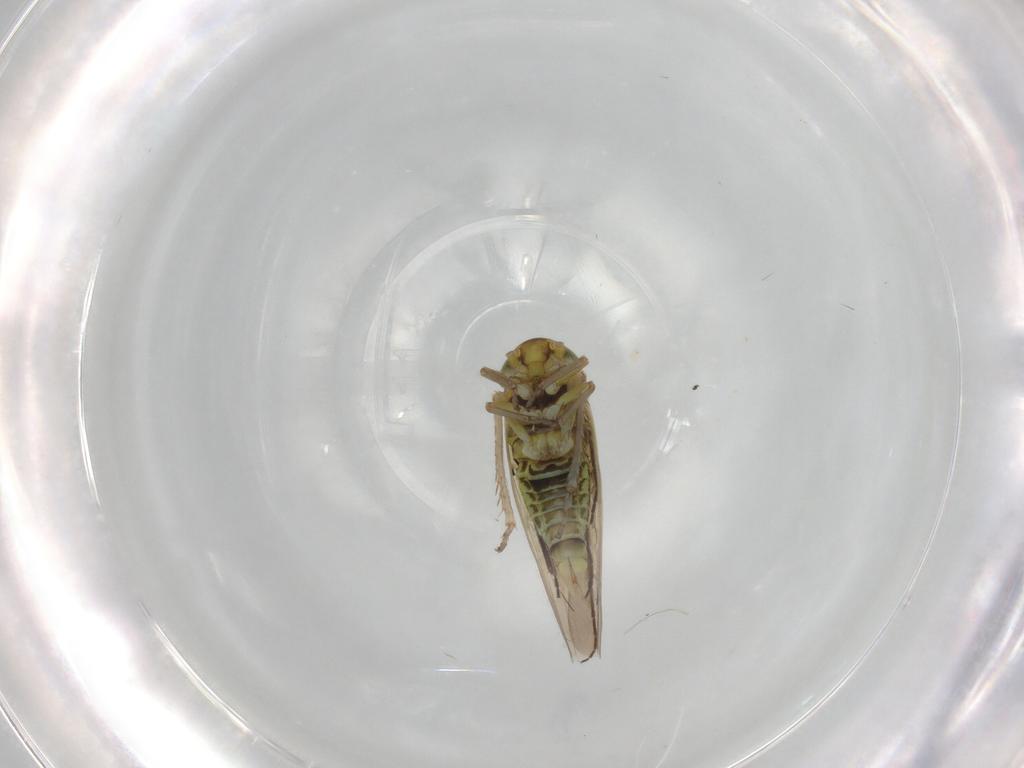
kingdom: Animalia
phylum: Arthropoda
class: Insecta
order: Hemiptera
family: Cicadellidae
